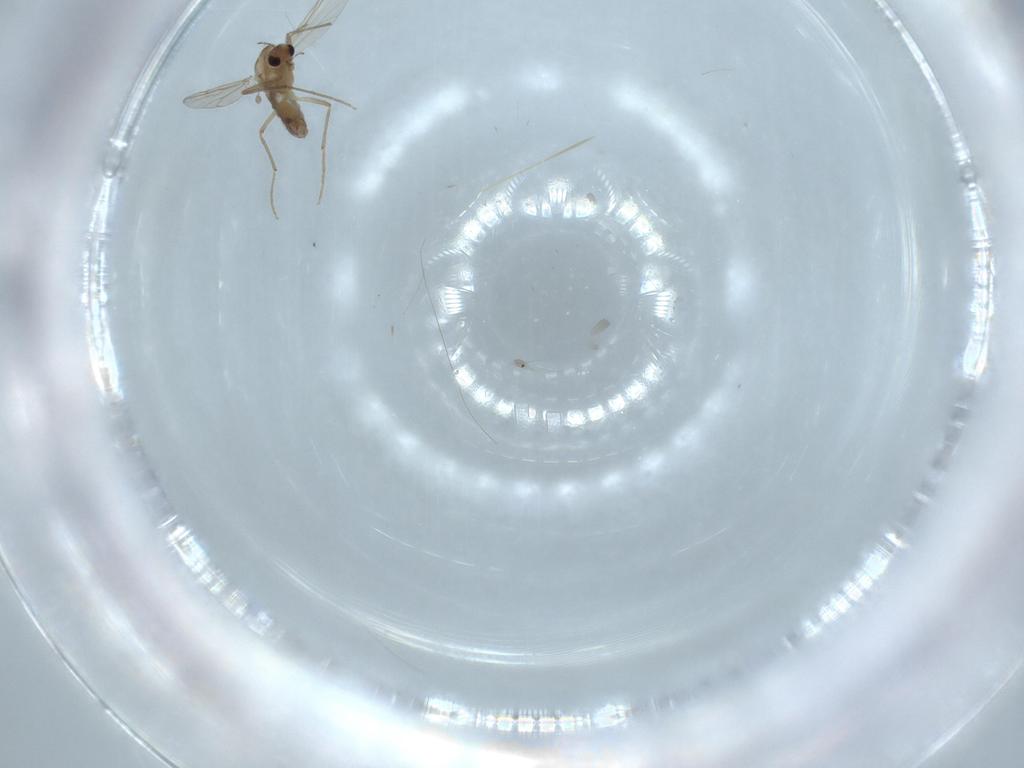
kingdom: Animalia
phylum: Arthropoda
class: Insecta
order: Diptera
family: Chironomidae
